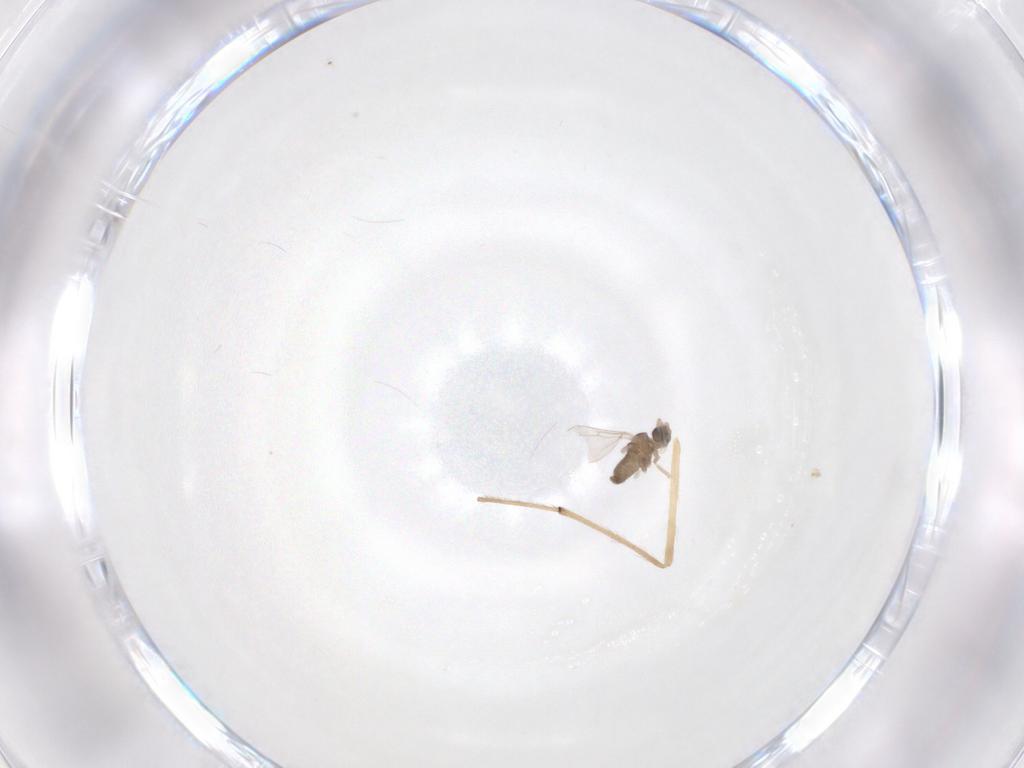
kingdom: Animalia
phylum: Arthropoda
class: Insecta
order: Diptera
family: Cecidomyiidae
